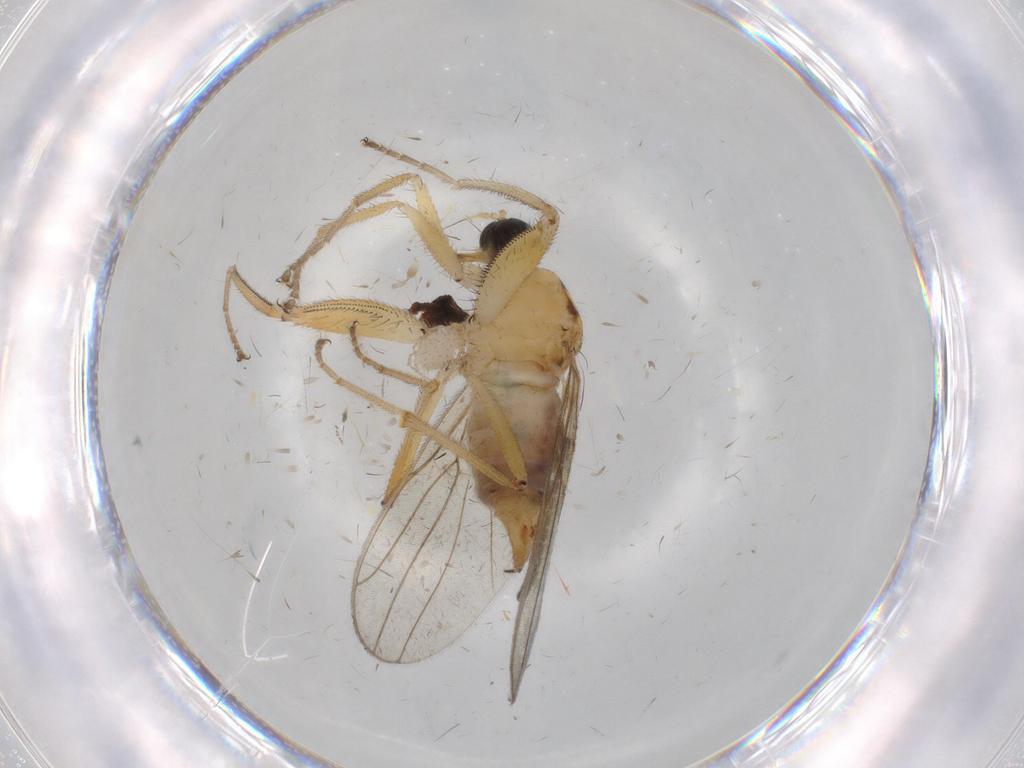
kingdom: Animalia
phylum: Arthropoda
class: Insecta
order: Diptera
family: Hybotidae
